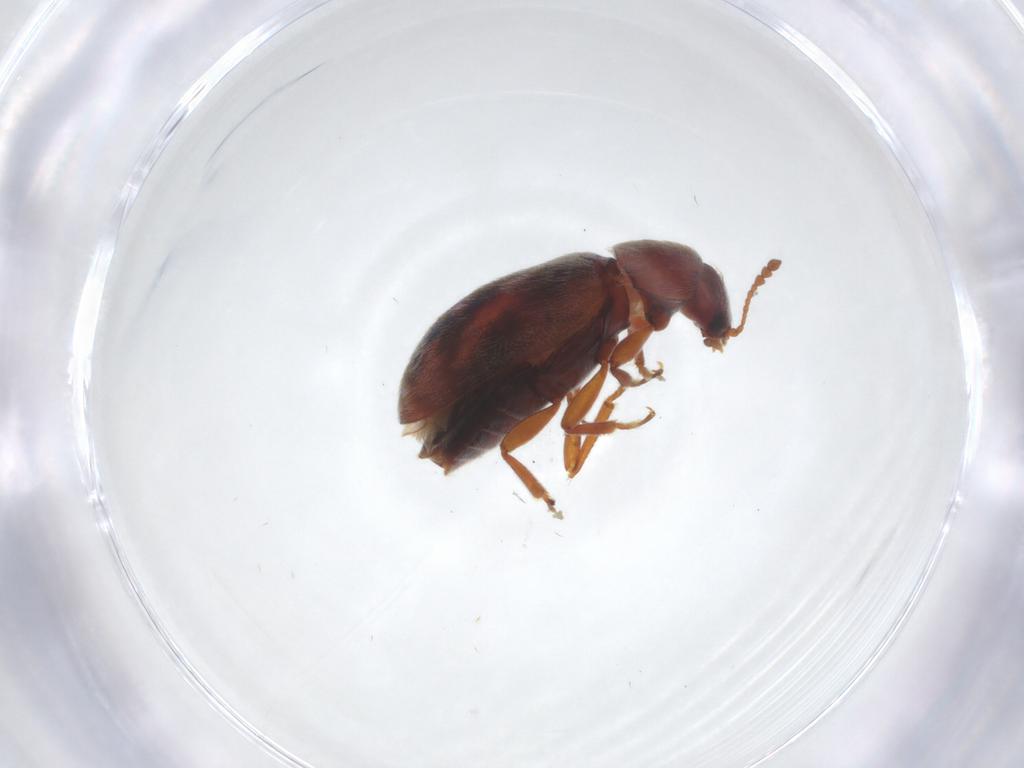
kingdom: Animalia
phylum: Arthropoda
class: Insecta
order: Coleoptera
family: Byturidae
